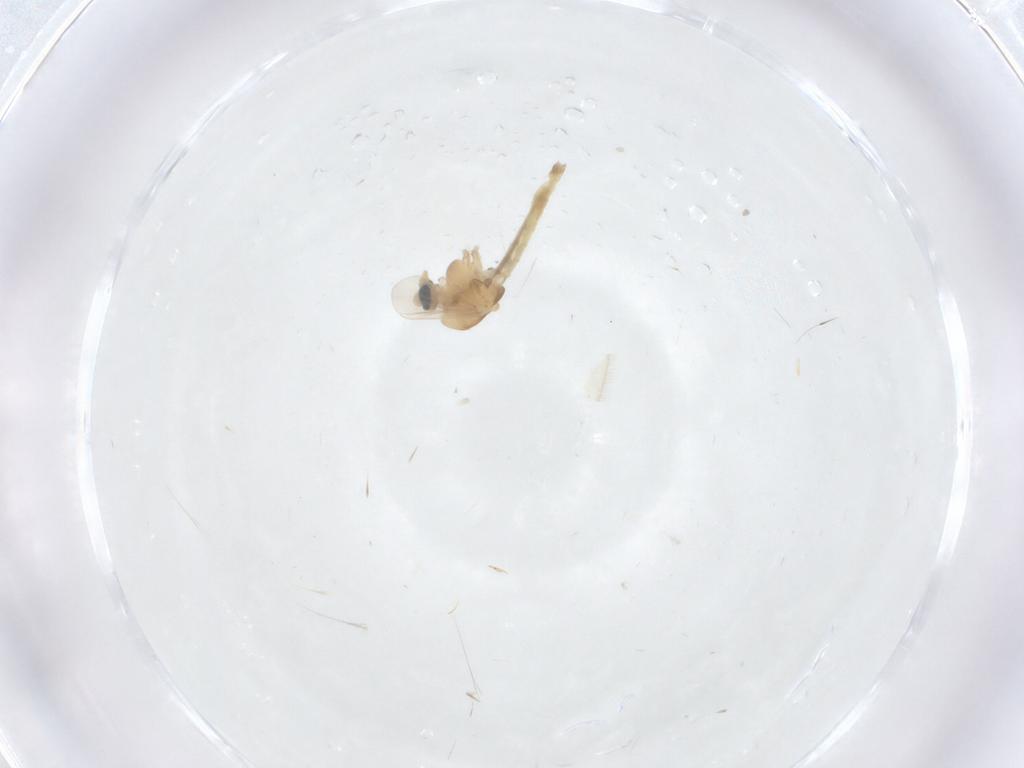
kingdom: Animalia
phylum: Arthropoda
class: Insecta
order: Diptera
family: Chironomidae
